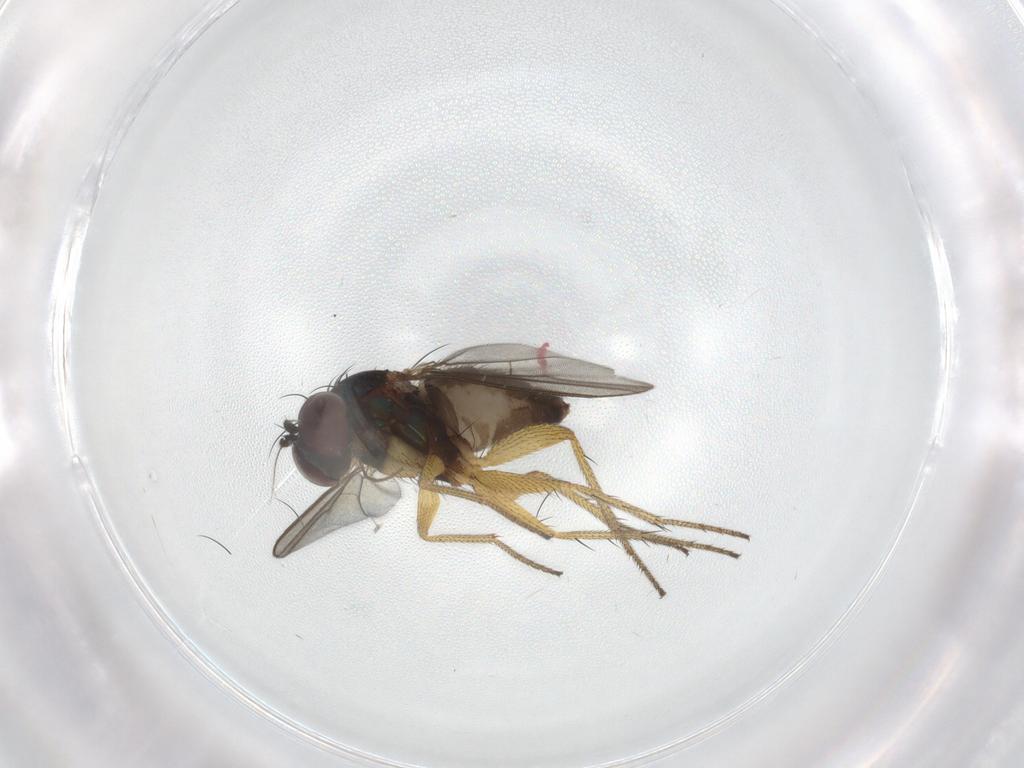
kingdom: Animalia
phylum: Arthropoda
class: Insecta
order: Diptera
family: Dolichopodidae
